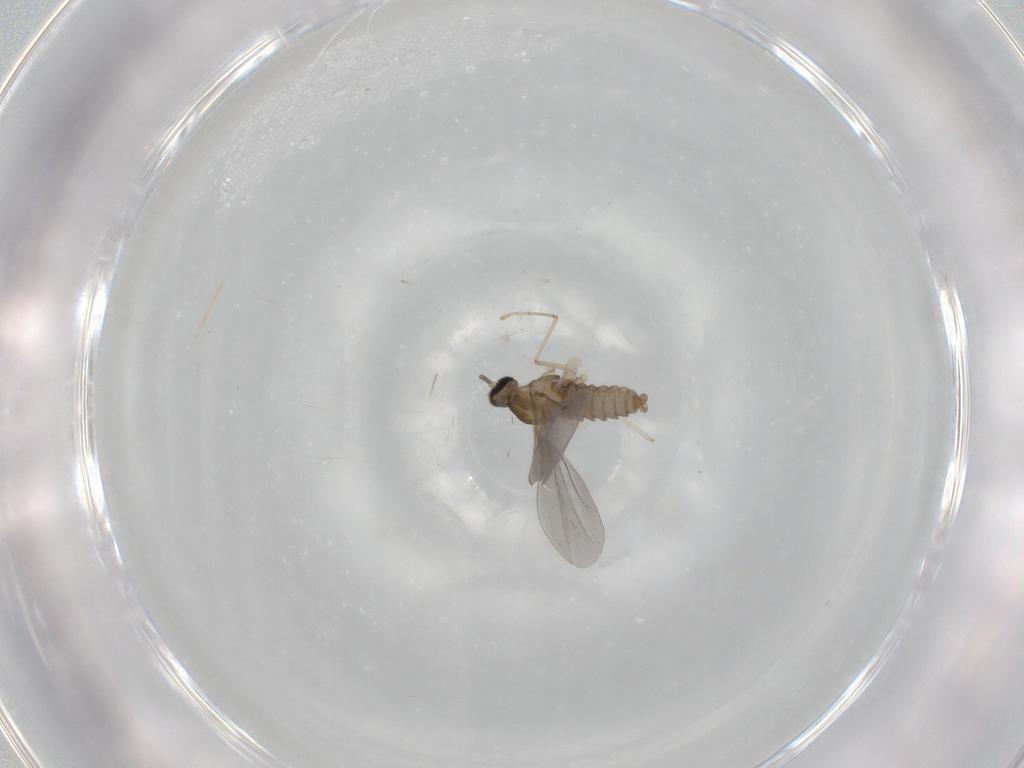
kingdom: Animalia
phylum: Arthropoda
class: Insecta
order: Diptera
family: Cecidomyiidae
